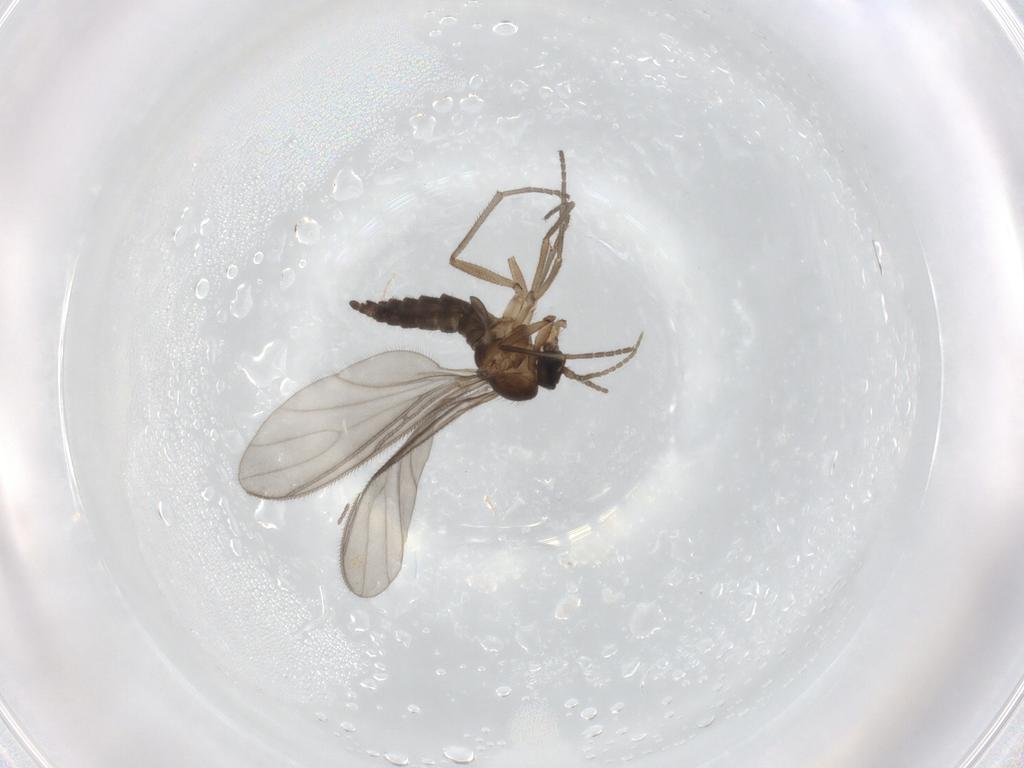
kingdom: Animalia
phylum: Arthropoda
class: Insecta
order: Diptera
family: Sciaridae
